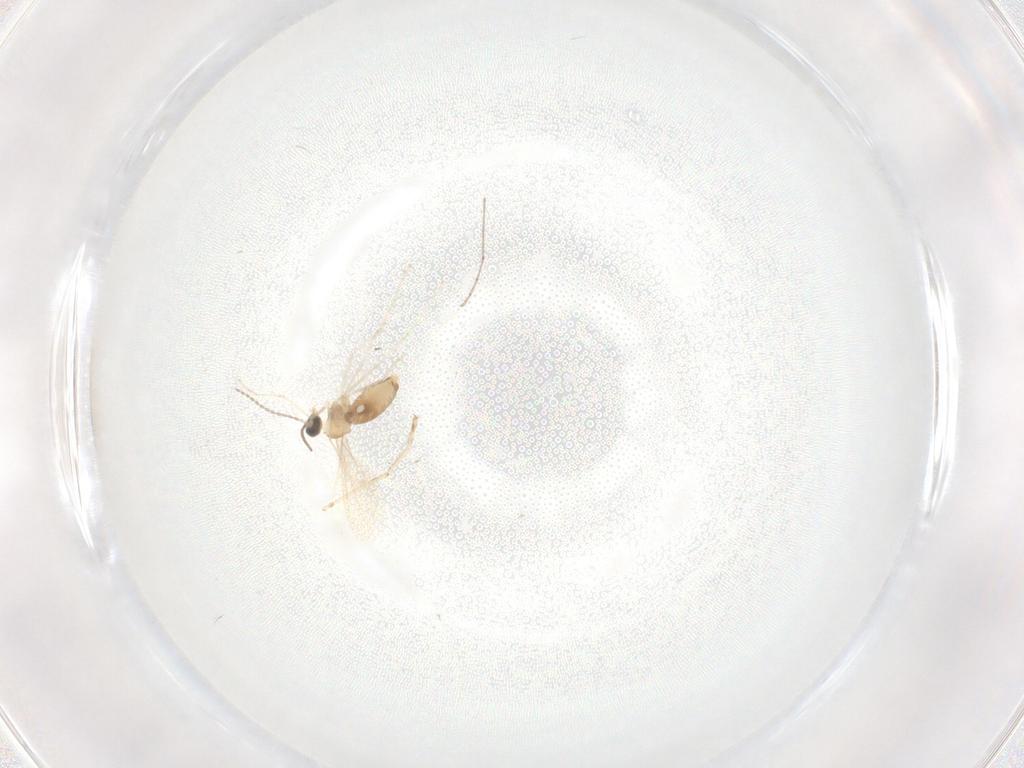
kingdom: Animalia
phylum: Arthropoda
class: Insecta
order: Diptera
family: Cecidomyiidae
